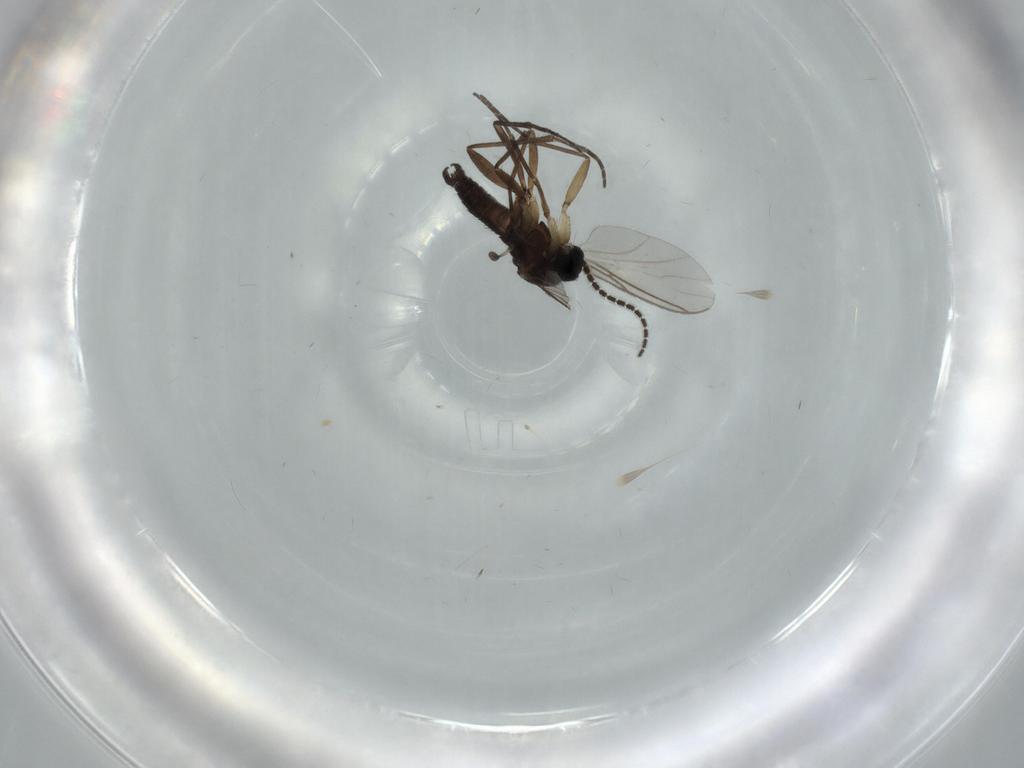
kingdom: Animalia
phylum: Arthropoda
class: Insecta
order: Diptera
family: Sciaridae
